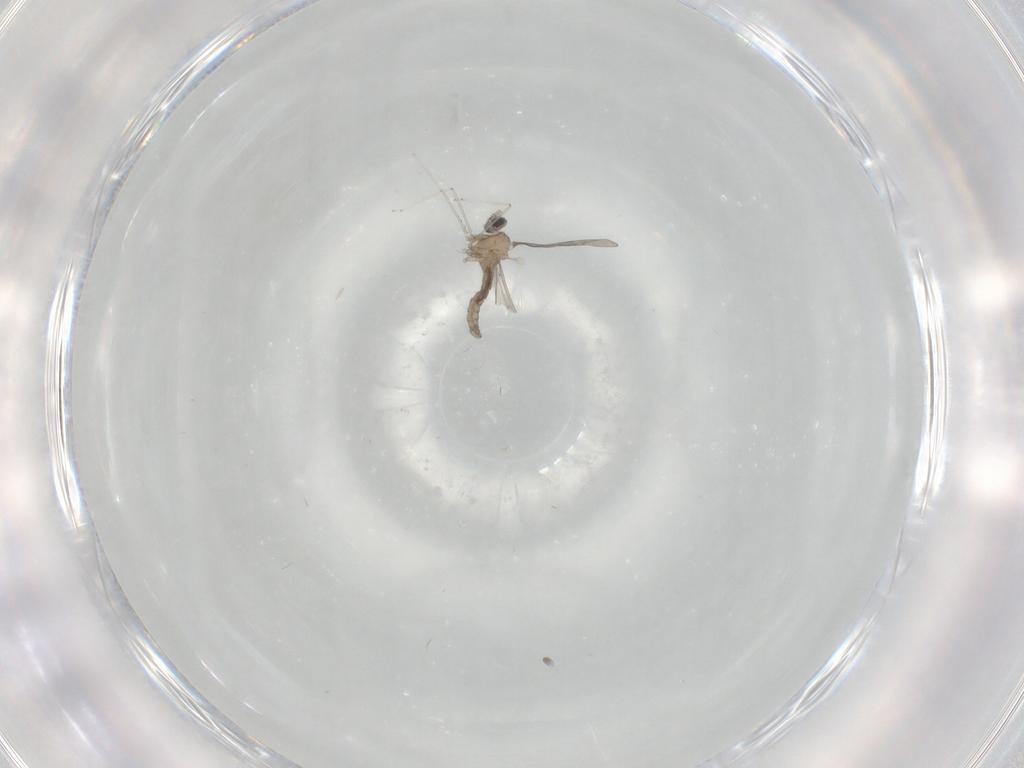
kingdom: Animalia
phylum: Arthropoda
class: Insecta
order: Diptera
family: Cecidomyiidae
